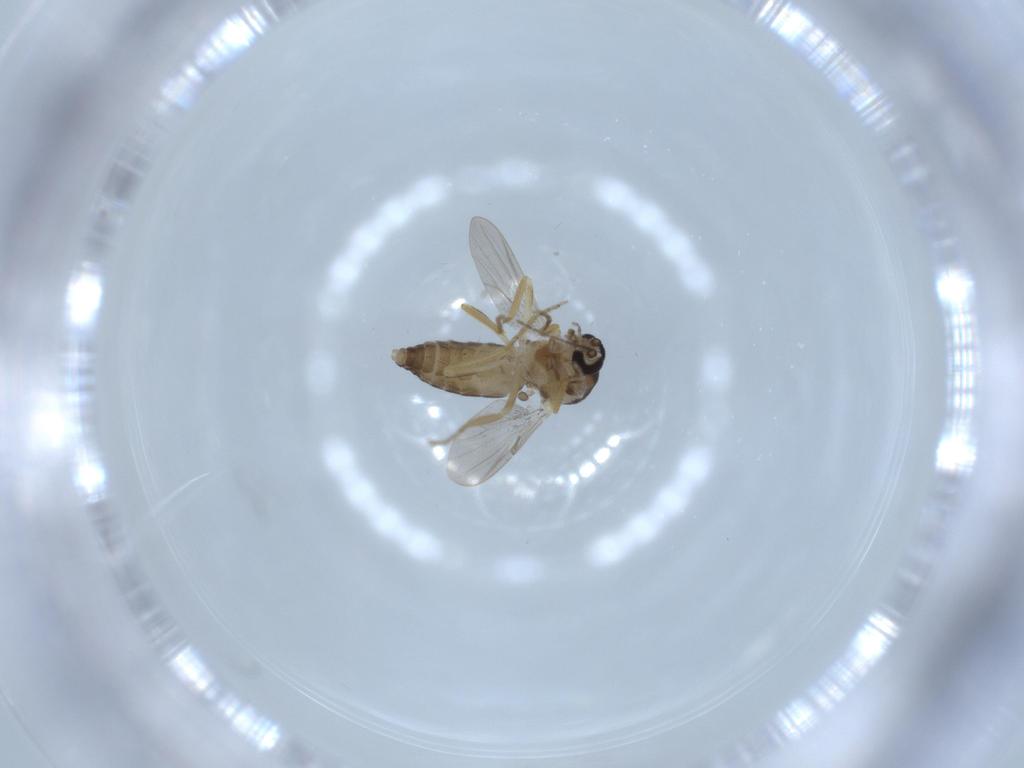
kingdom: Animalia
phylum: Arthropoda
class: Insecta
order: Diptera
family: Ceratopogonidae
